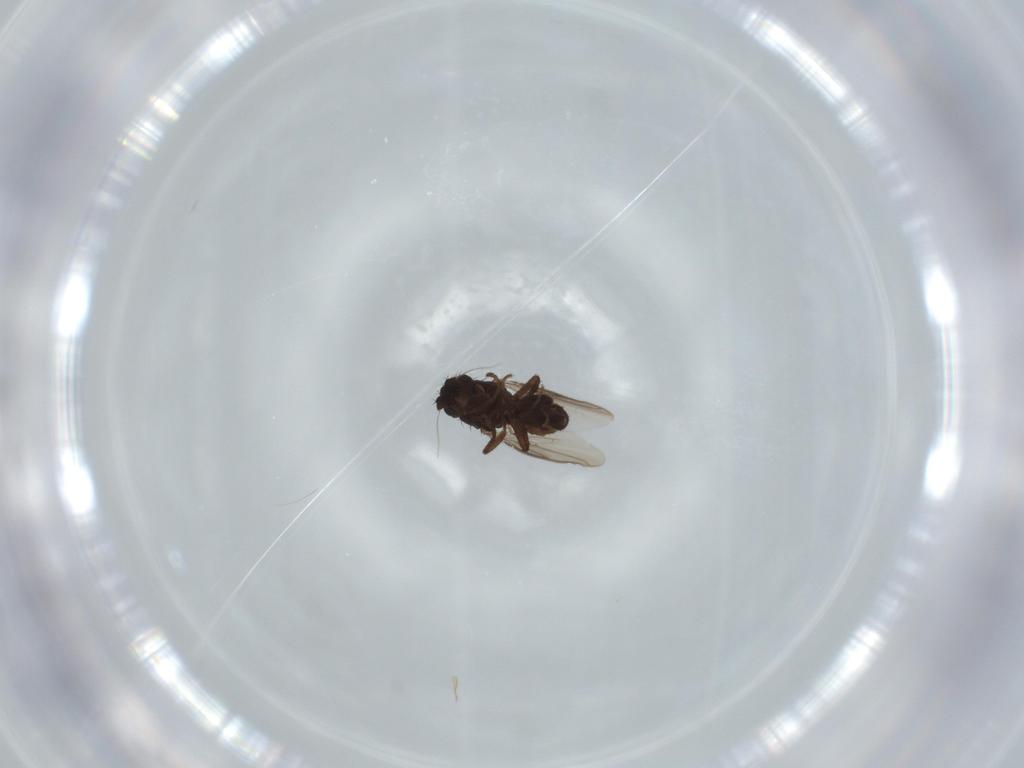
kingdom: Animalia
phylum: Arthropoda
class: Insecta
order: Diptera
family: Sphaeroceridae
